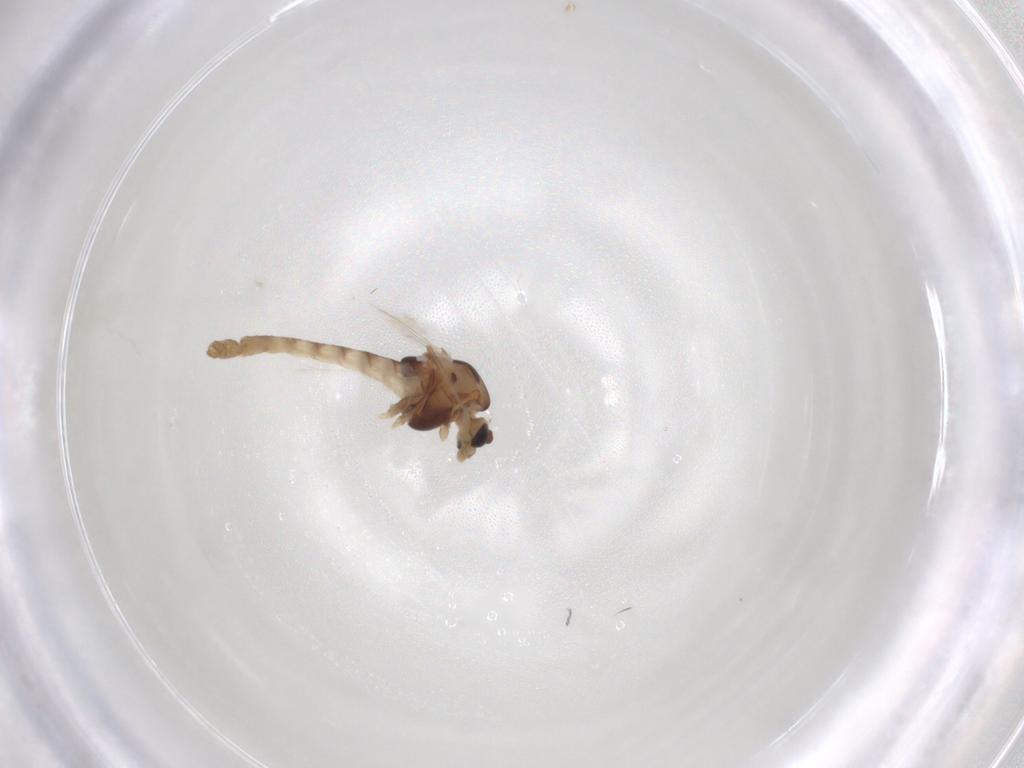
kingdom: Animalia
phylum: Arthropoda
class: Insecta
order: Diptera
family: Chironomidae
